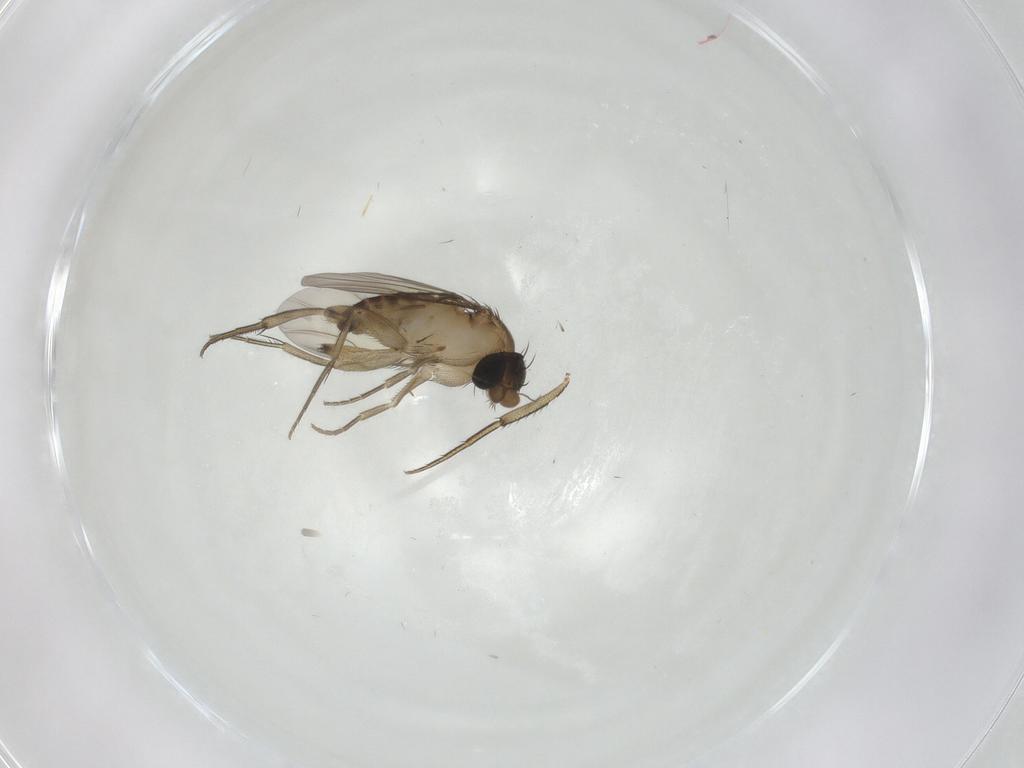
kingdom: Animalia
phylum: Arthropoda
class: Insecta
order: Diptera
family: Phoridae
